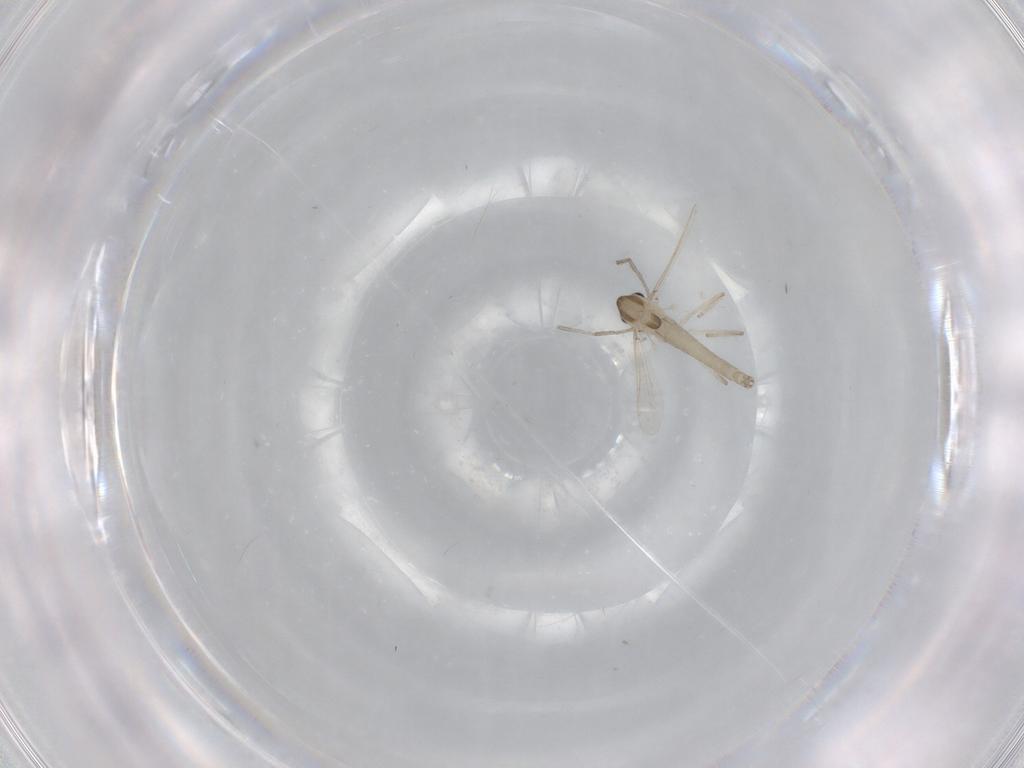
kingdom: Animalia
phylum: Arthropoda
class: Insecta
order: Diptera
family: Chironomidae
